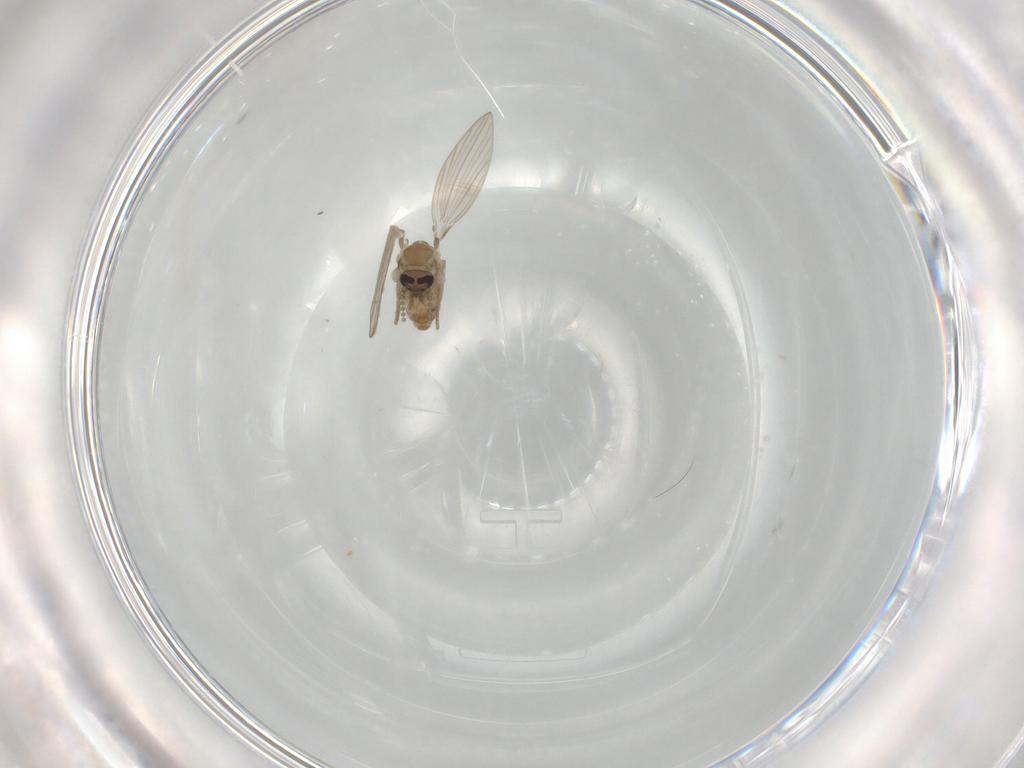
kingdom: Animalia
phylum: Arthropoda
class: Insecta
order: Diptera
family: Psychodidae
